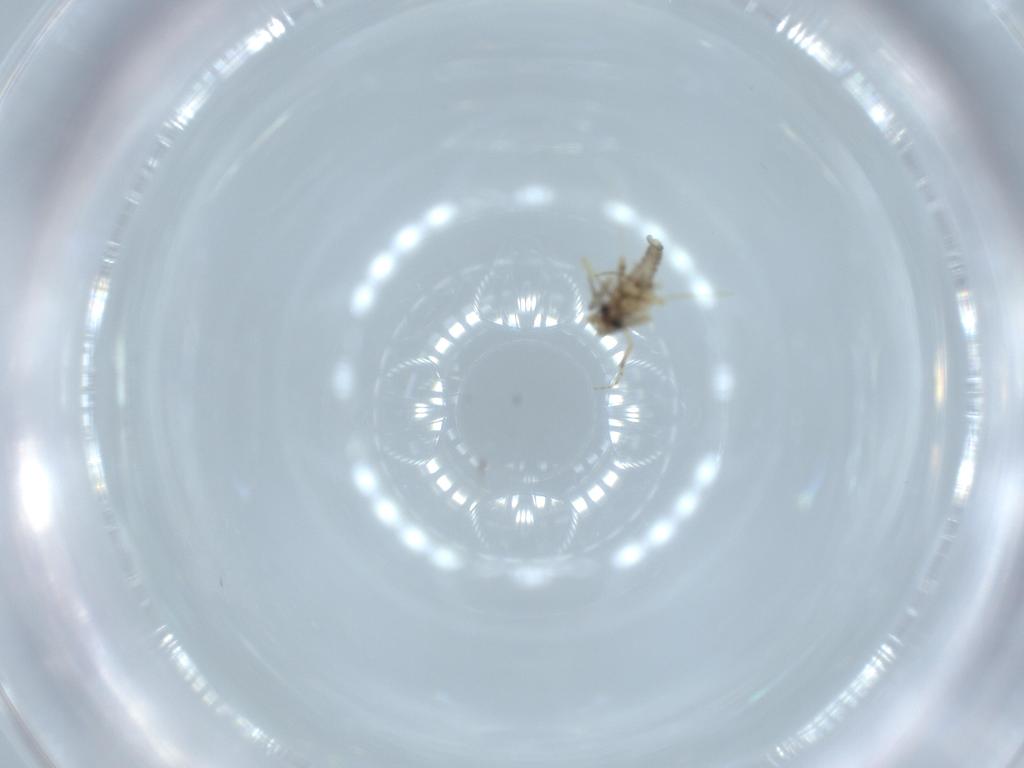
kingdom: Animalia
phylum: Arthropoda
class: Insecta
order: Diptera
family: Ceratopogonidae
